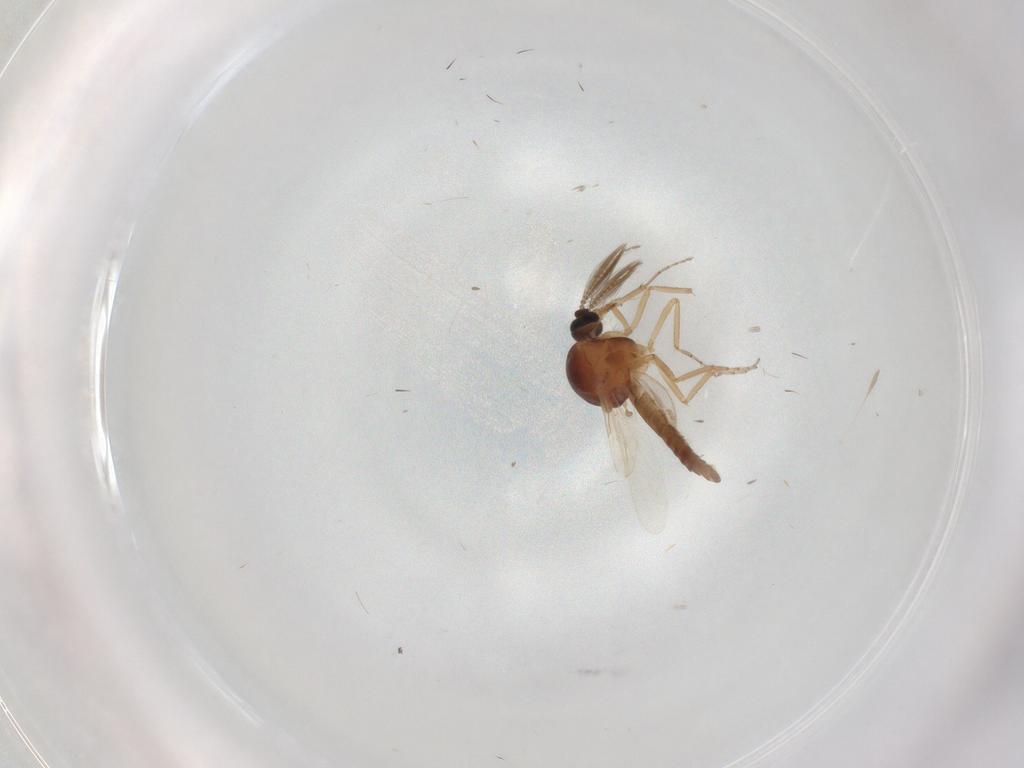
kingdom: Animalia
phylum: Arthropoda
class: Insecta
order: Diptera
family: Ceratopogonidae
